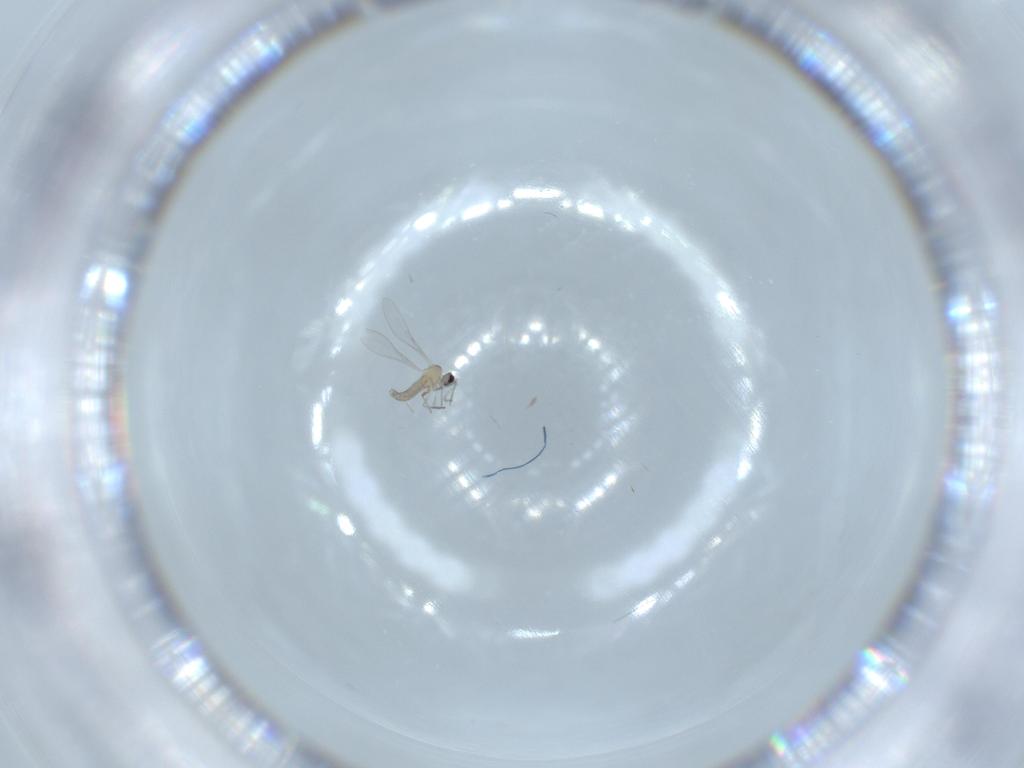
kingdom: Animalia
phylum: Arthropoda
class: Insecta
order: Diptera
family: Cecidomyiidae
